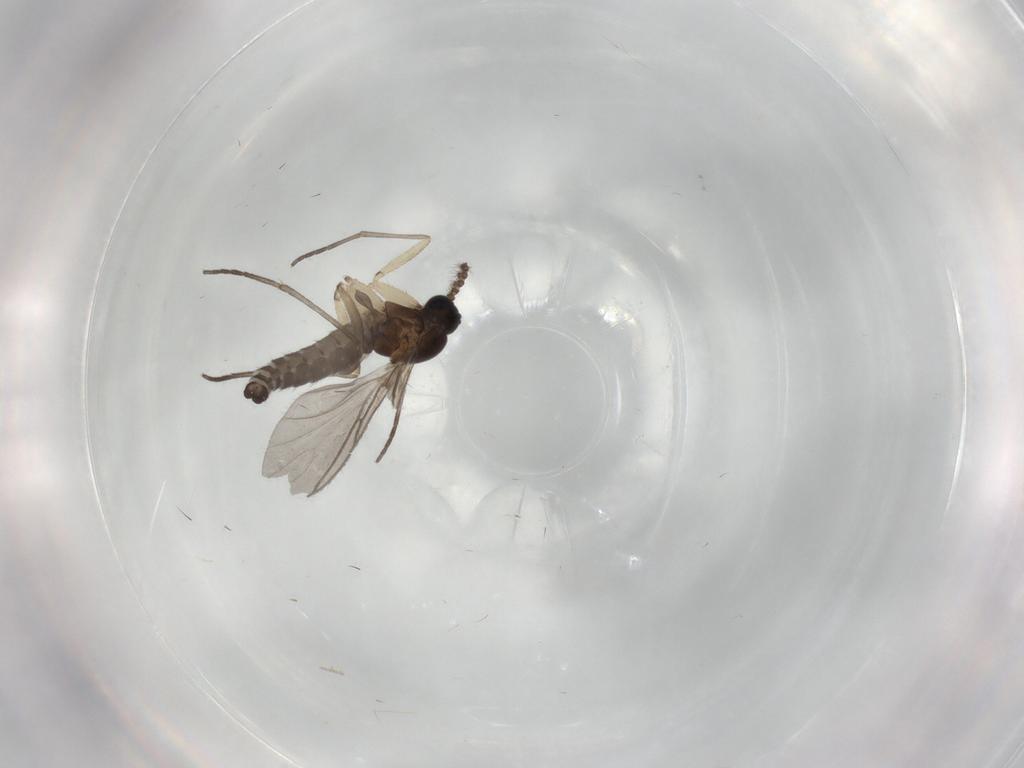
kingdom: Animalia
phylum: Arthropoda
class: Insecta
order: Diptera
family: Sciaridae
